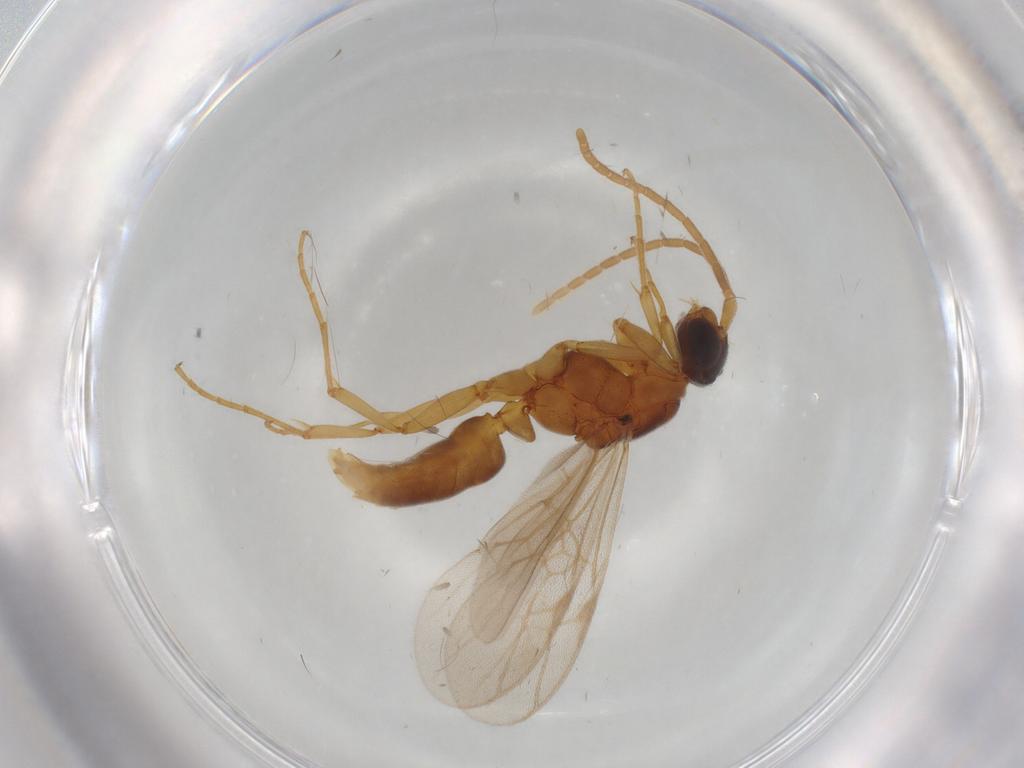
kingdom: Animalia
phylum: Arthropoda
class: Insecta
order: Hymenoptera
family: Formicidae
